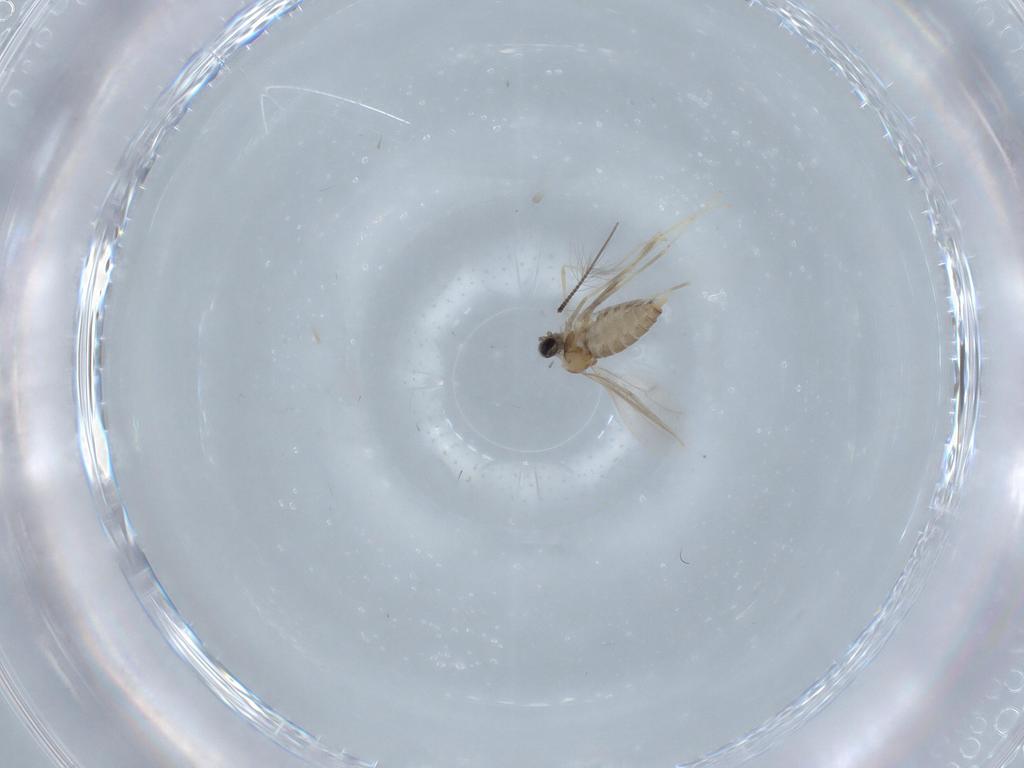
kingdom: Animalia
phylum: Arthropoda
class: Insecta
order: Diptera
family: Chironomidae
